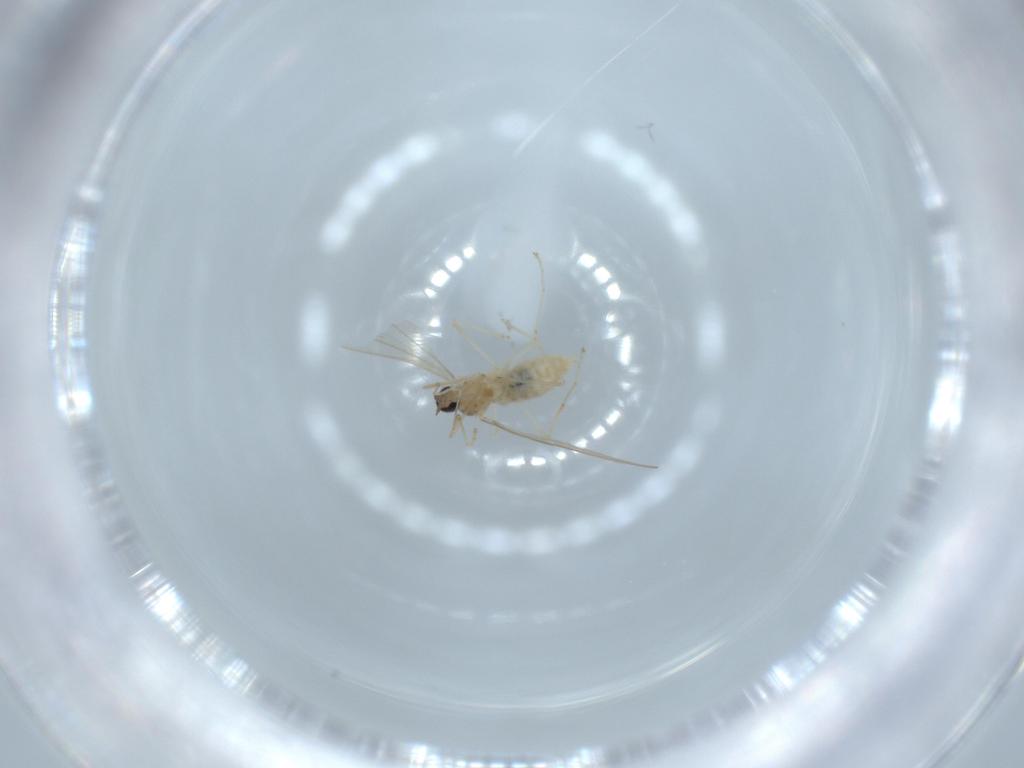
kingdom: Animalia
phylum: Arthropoda
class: Insecta
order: Diptera
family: Cecidomyiidae
